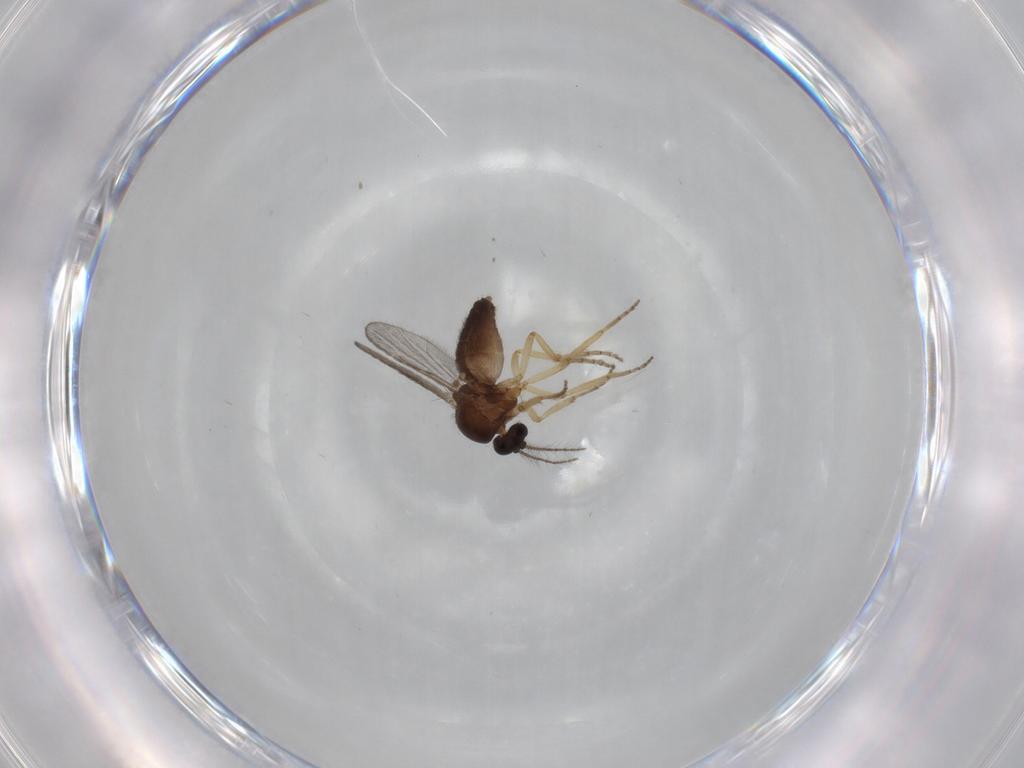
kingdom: Animalia
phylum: Arthropoda
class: Insecta
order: Diptera
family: Ceratopogonidae
